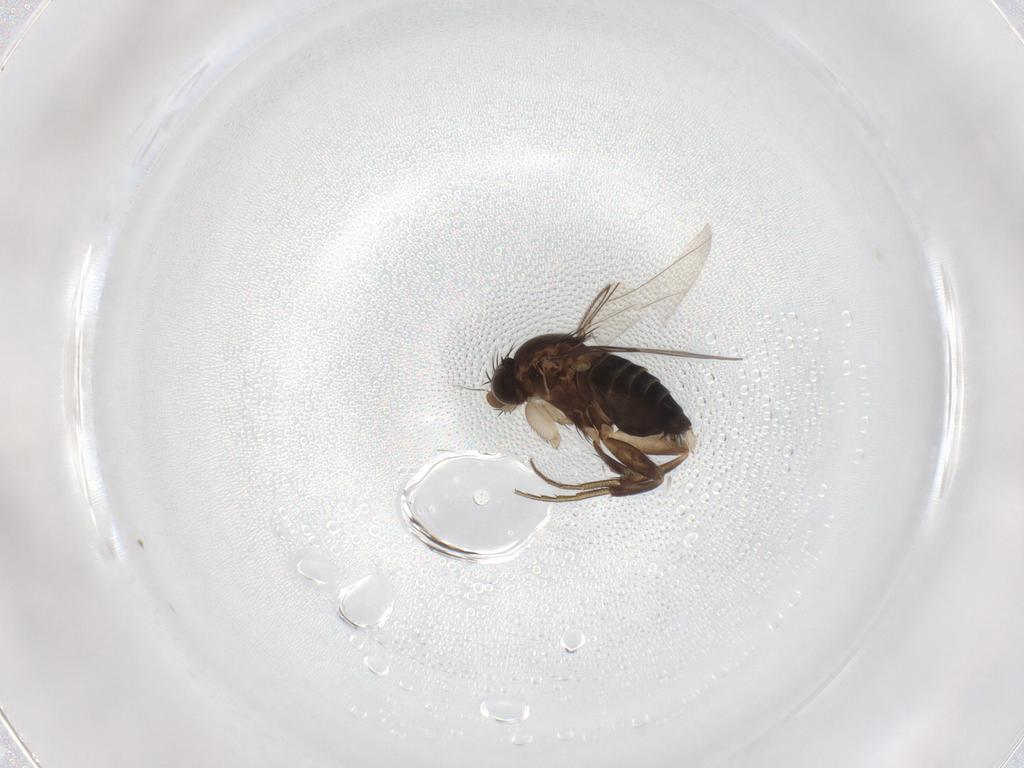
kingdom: Animalia
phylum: Arthropoda
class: Insecta
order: Diptera
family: Phoridae
